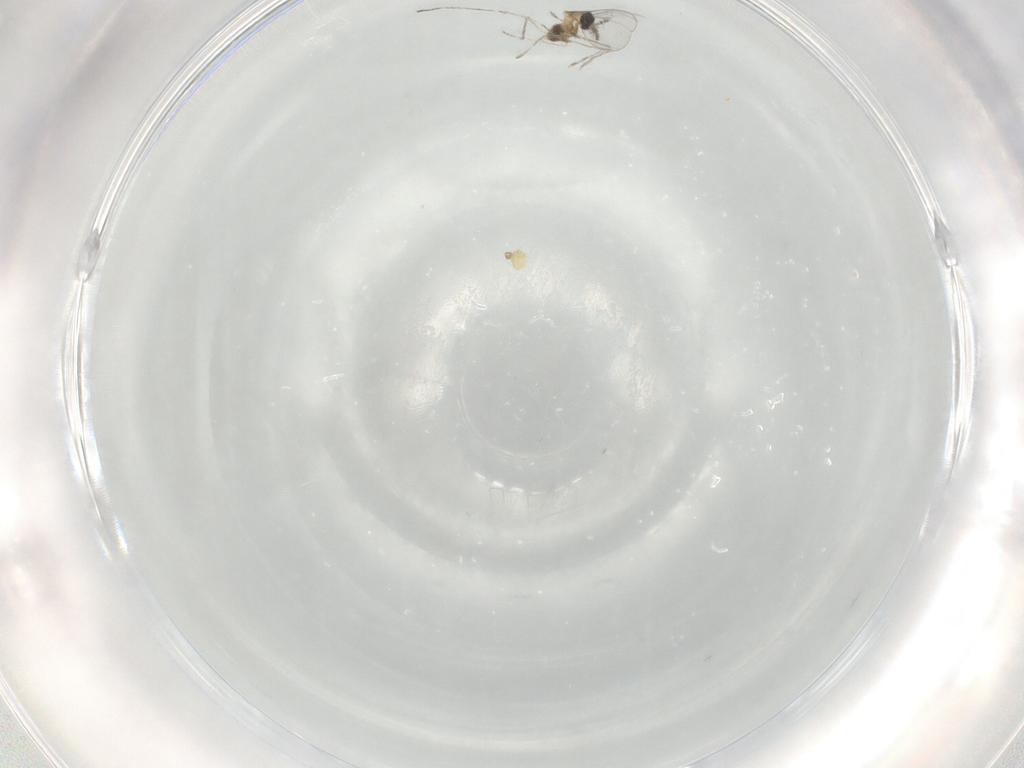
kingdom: Animalia
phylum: Arthropoda
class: Insecta
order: Diptera
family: Cecidomyiidae
